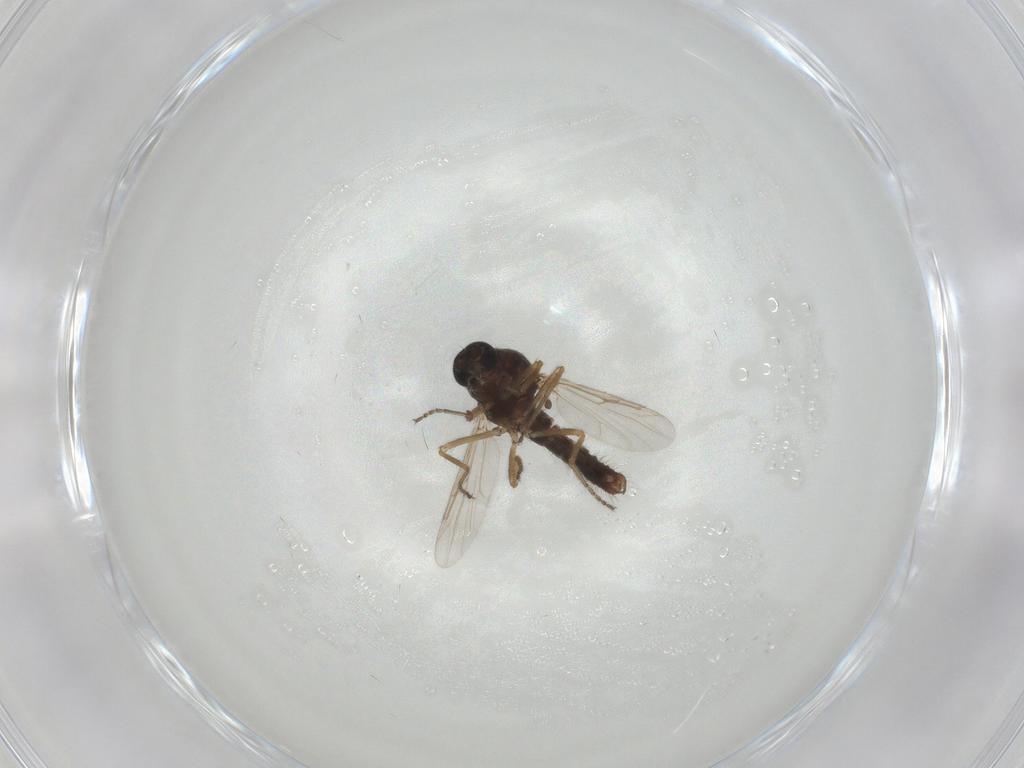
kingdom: Animalia
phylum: Arthropoda
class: Insecta
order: Diptera
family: Ceratopogonidae
